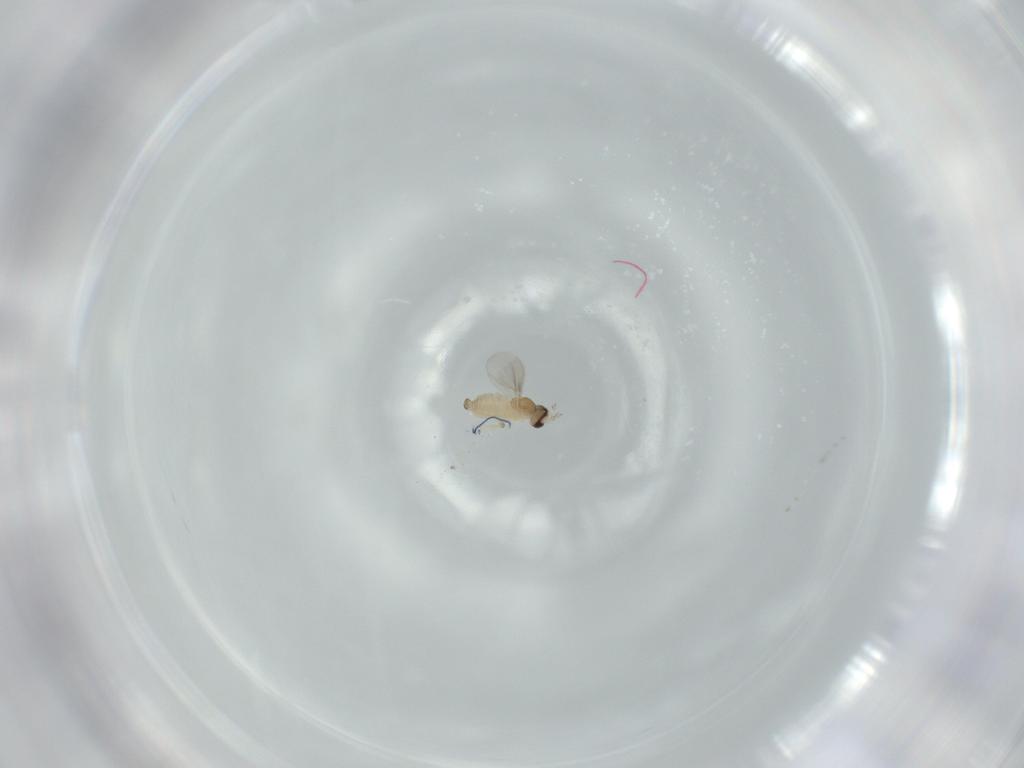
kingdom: Animalia
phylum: Arthropoda
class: Insecta
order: Diptera
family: Cecidomyiidae
